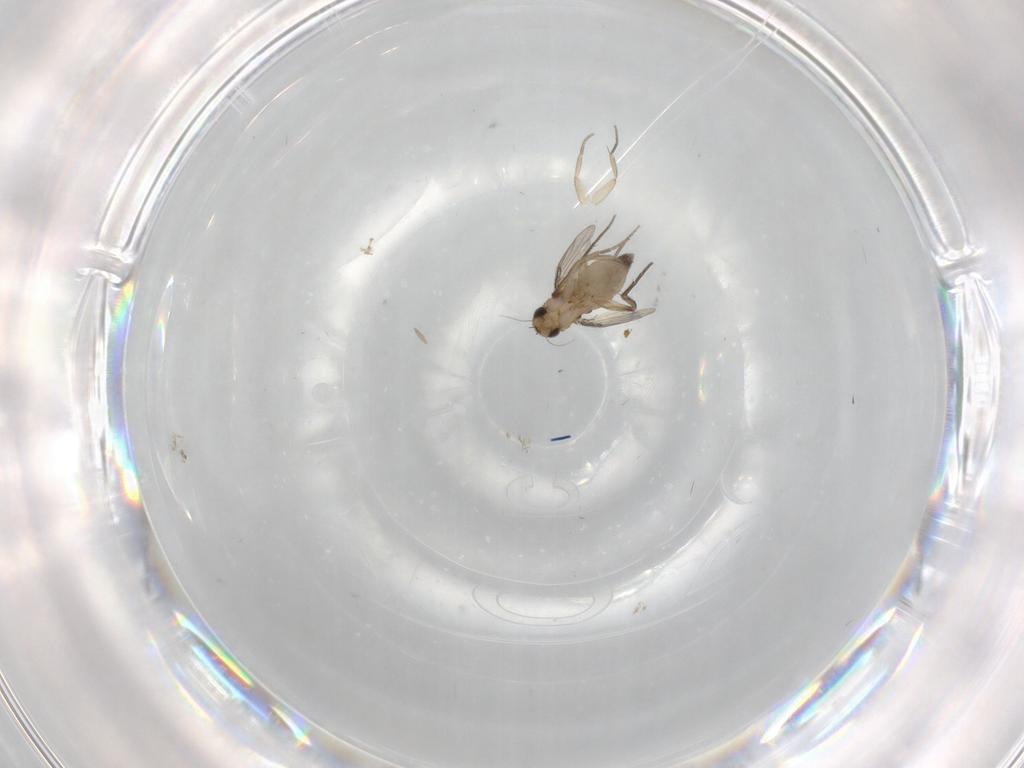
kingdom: Animalia
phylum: Arthropoda
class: Insecta
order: Diptera
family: Phoridae
